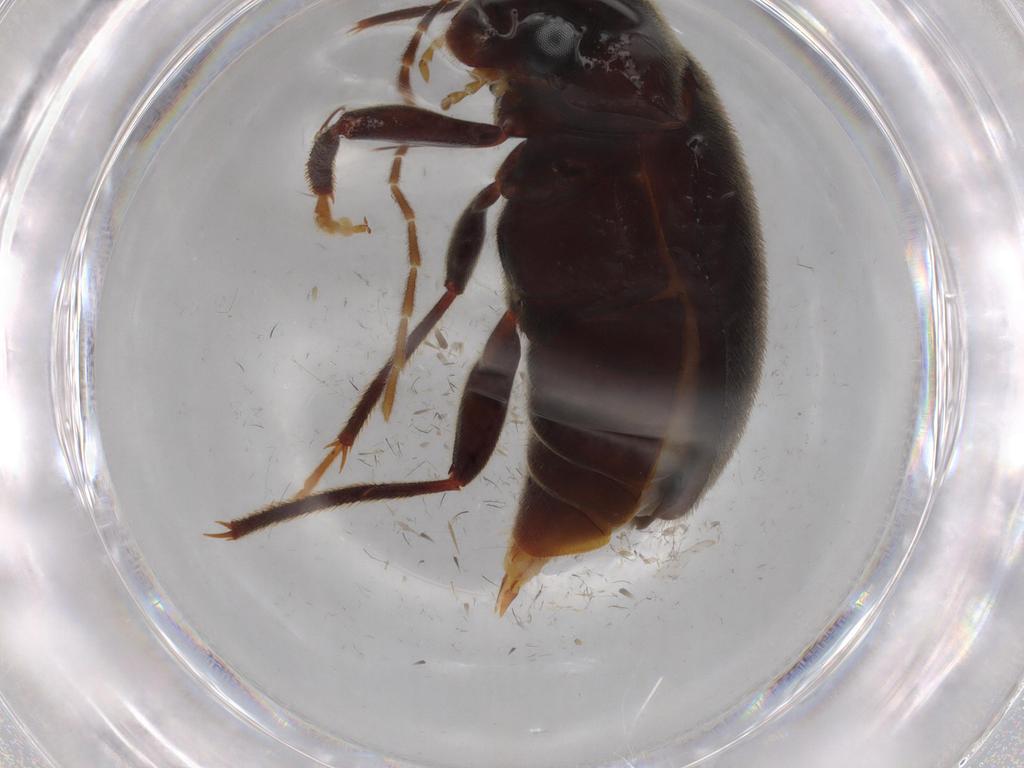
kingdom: Animalia
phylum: Arthropoda
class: Insecta
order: Coleoptera
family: Ptilodactylidae
